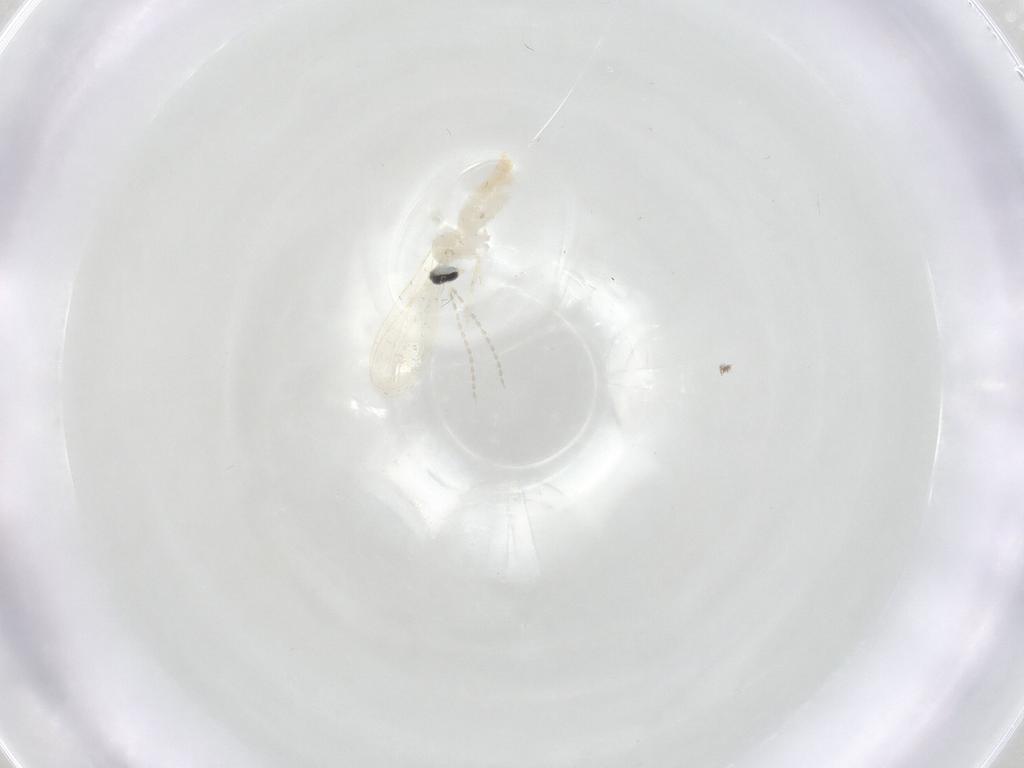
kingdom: Animalia
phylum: Arthropoda
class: Insecta
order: Diptera
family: Cecidomyiidae
